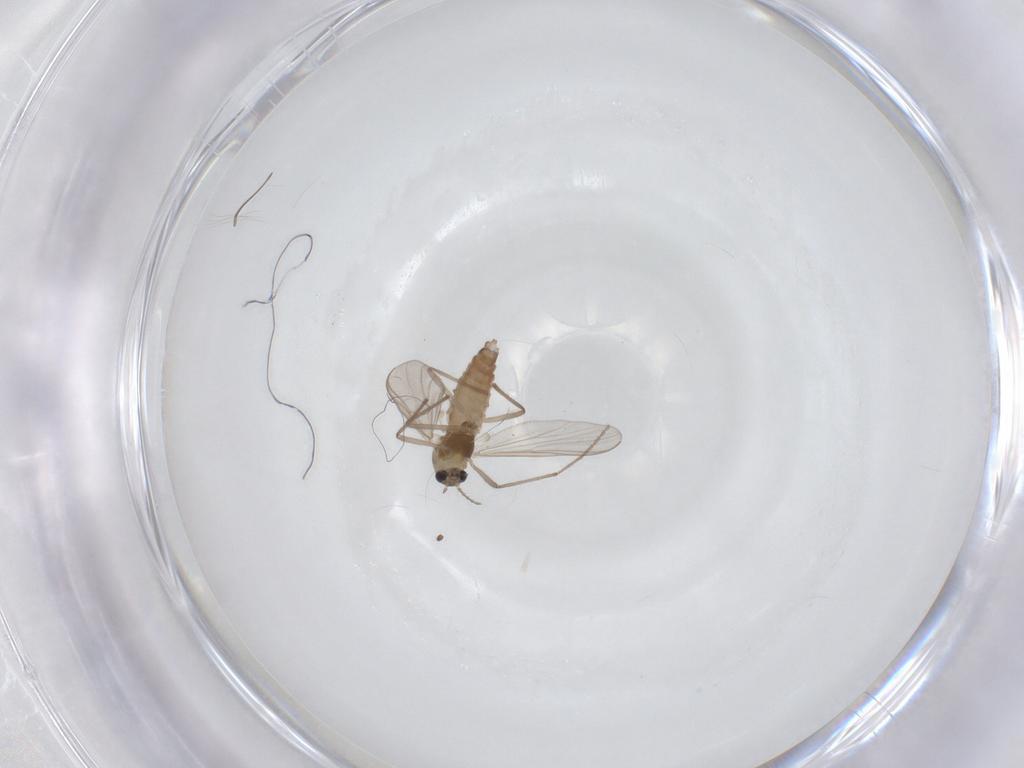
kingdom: Animalia
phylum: Arthropoda
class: Insecta
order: Diptera
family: Chironomidae
